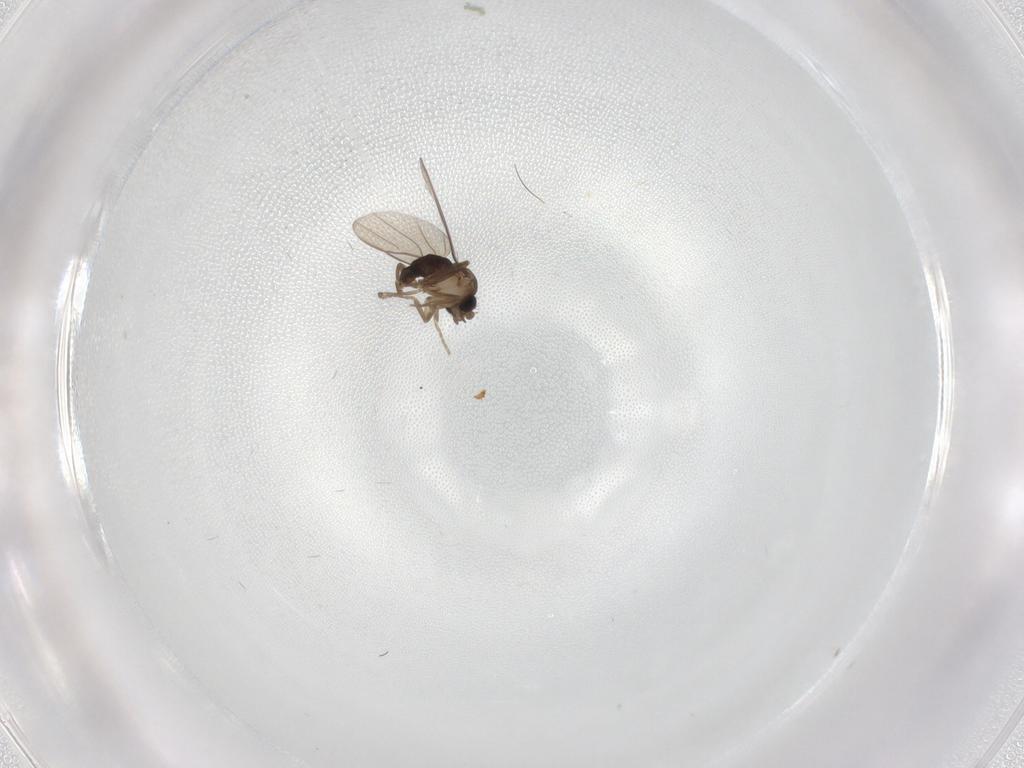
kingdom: Animalia
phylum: Arthropoda
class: Insecta
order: Diptera
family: Phoridae
